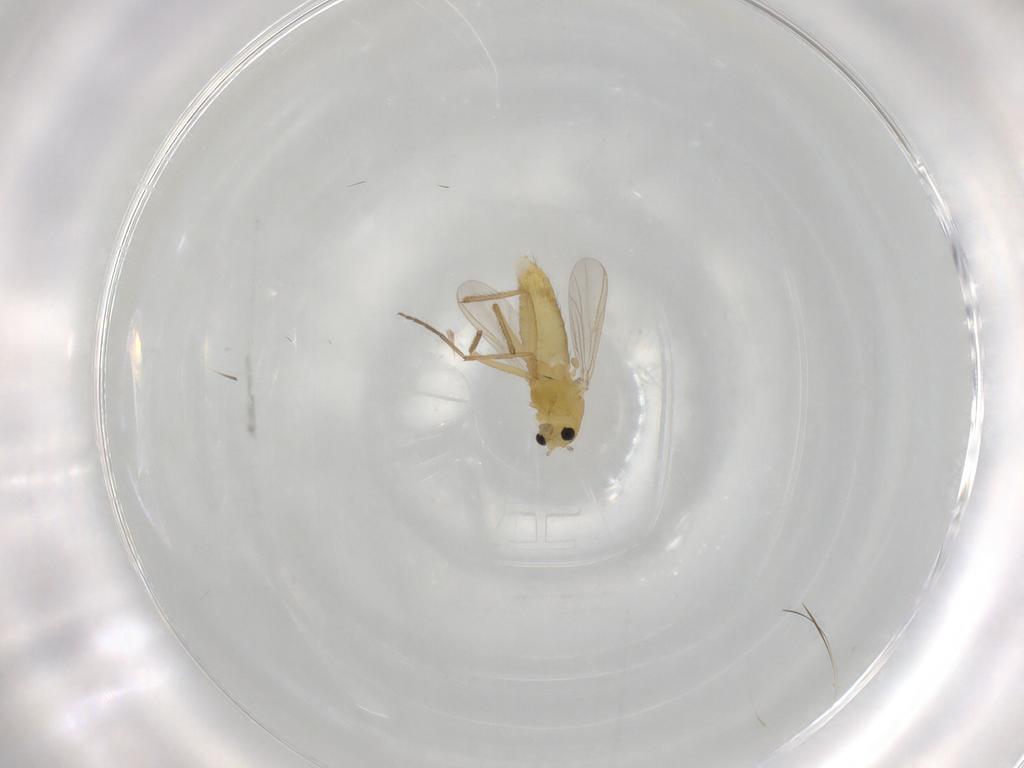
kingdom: Animalia
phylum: Arthropoda
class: Insecta
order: Diptera
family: Chironomidae
